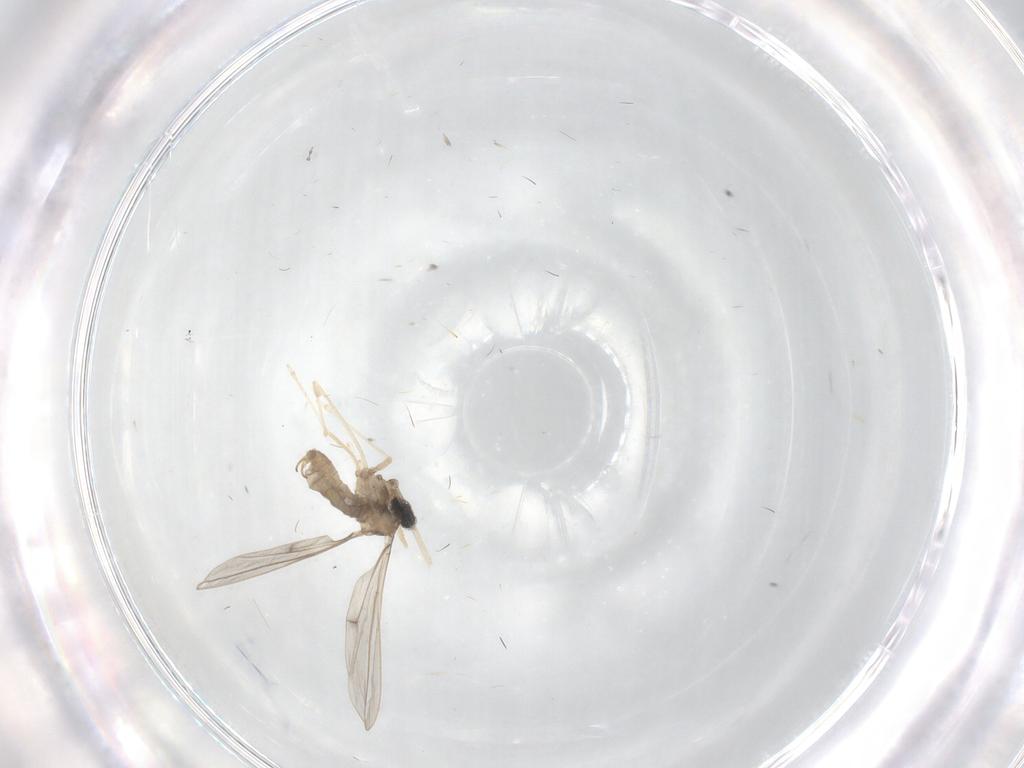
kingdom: Animalia
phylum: Arthropoda
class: Insecta
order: Diptera
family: Cecidomyiidae
